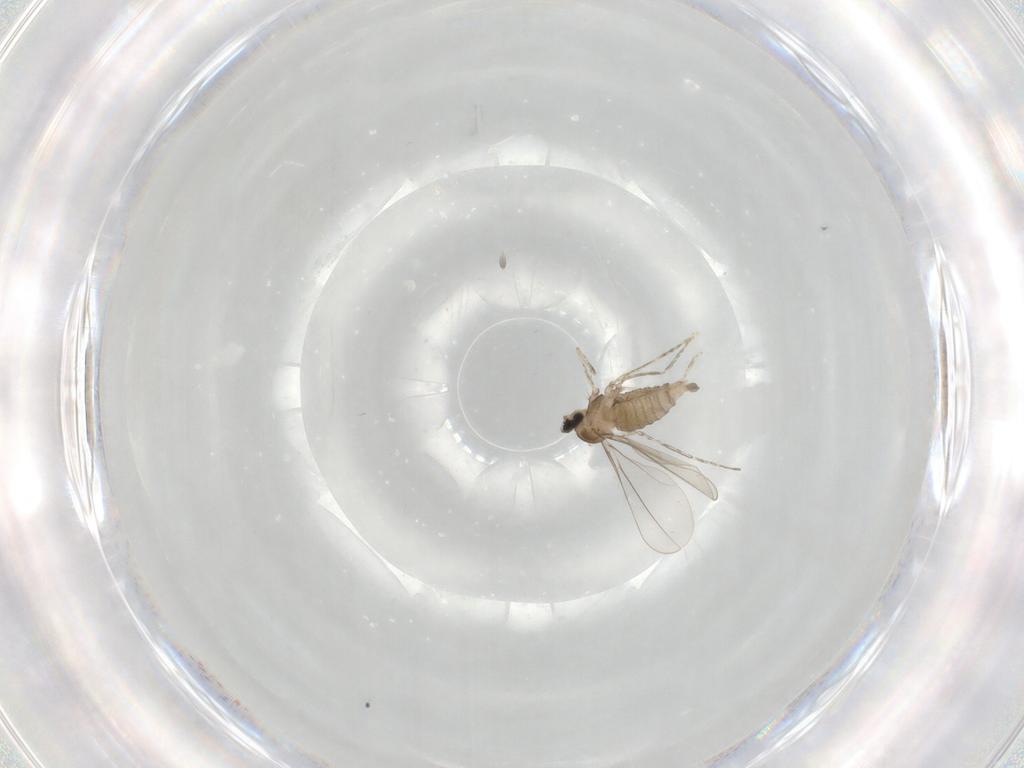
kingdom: Animalia
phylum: Arthropoda
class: Insecta
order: Diptera
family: Cecidomyiidae
